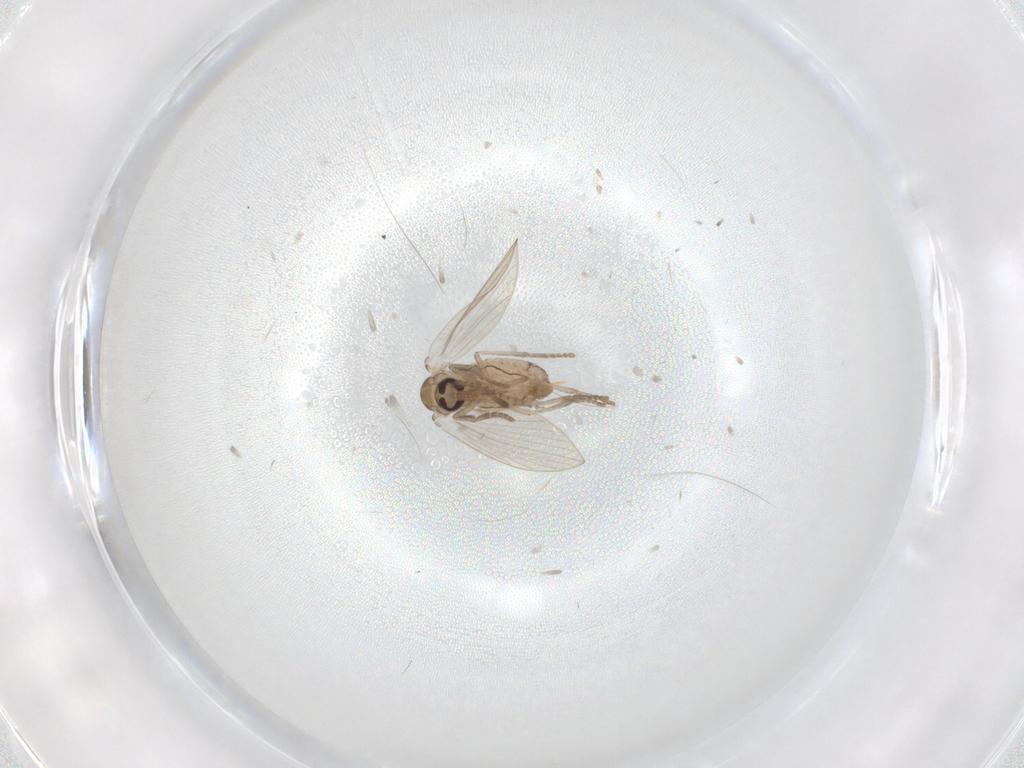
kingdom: Animalia
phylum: Arthropoda
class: Insecta
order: Diptera
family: Psychodidae
